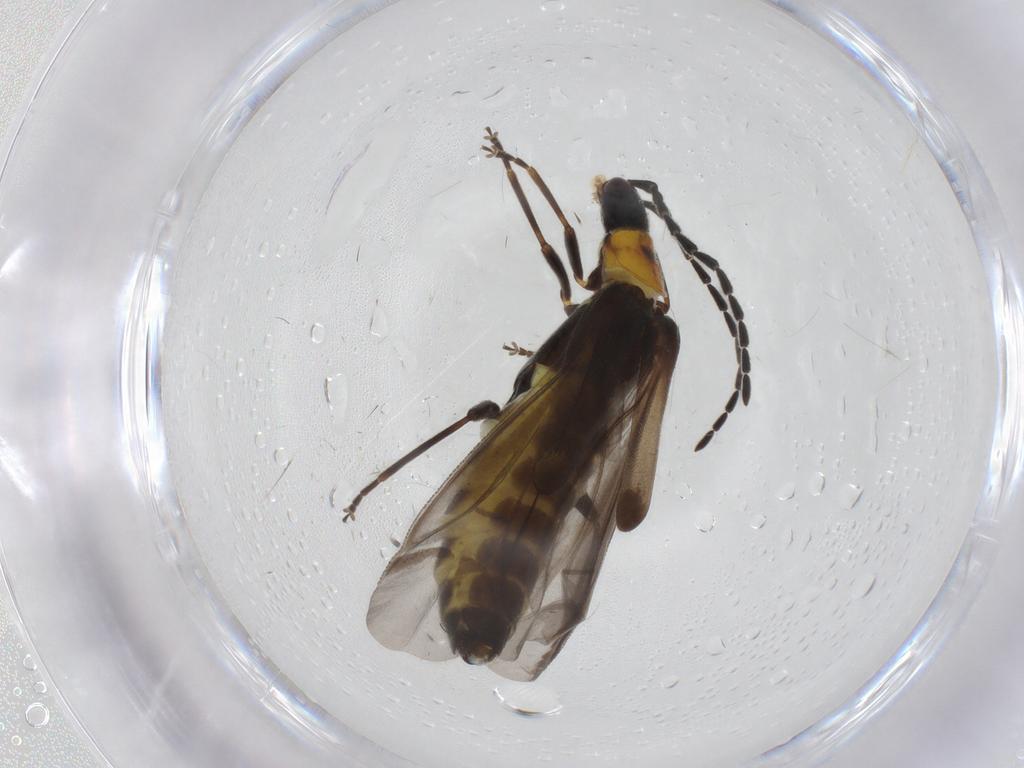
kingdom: Animalia
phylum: Arthropoda
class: Insecta
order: Coleoptera
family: Cantharidae
